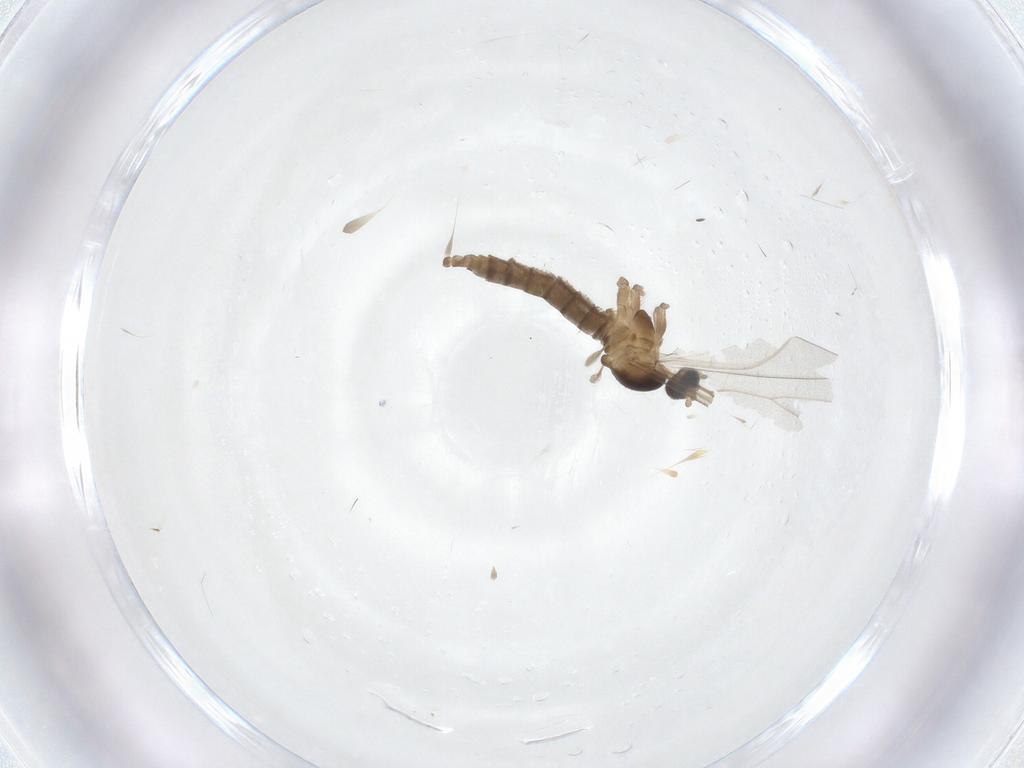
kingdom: Animalia
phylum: Arthropoda
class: Insecta
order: Diptera
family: Cecidomyiidae
